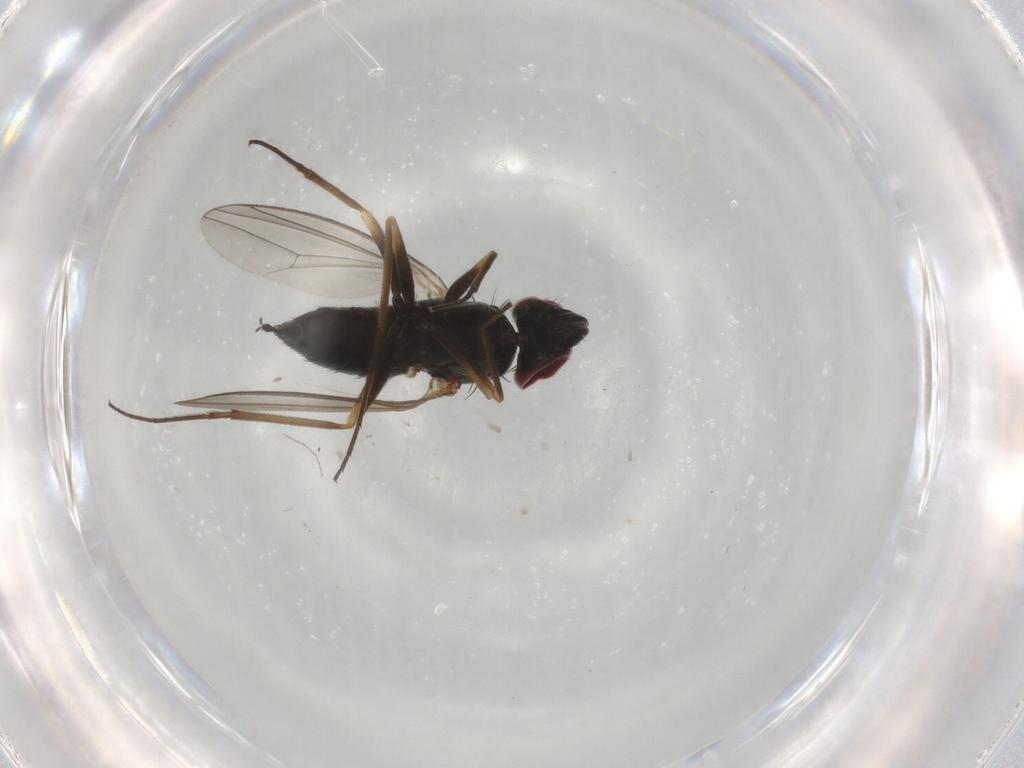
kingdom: Animalia
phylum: Arthropoda
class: Insecta
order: Diptera
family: Dolichopodidae
